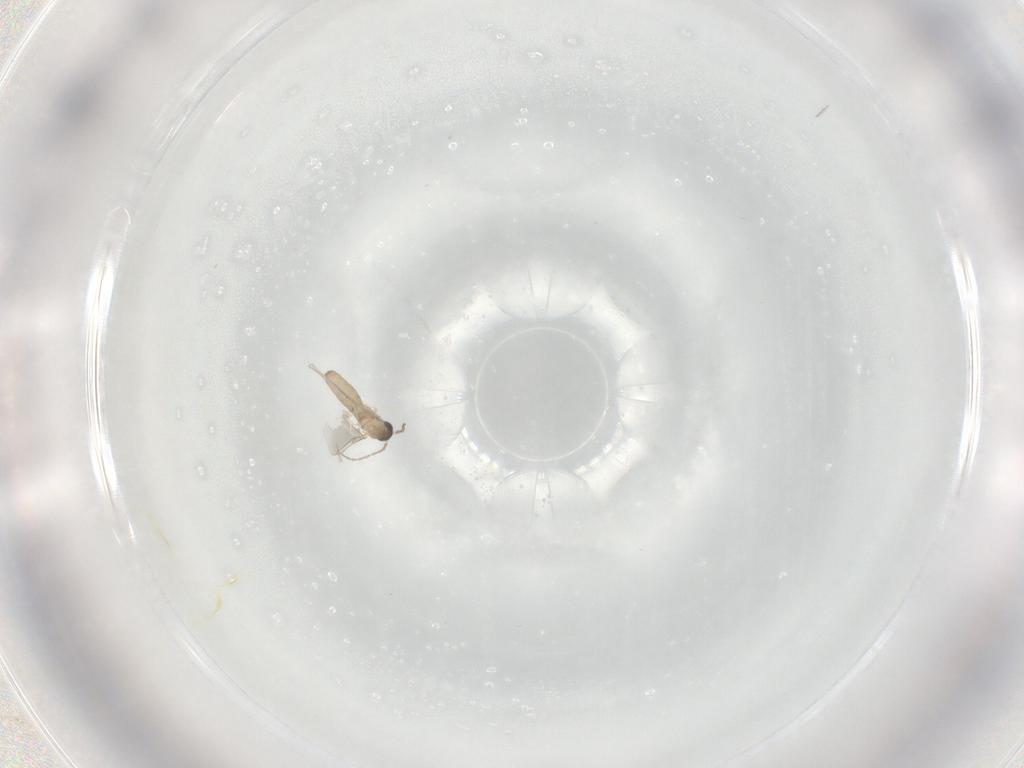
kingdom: Animalia
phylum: Arthropoda
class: Insecta
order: Diptera
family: Cecidomyiidae
